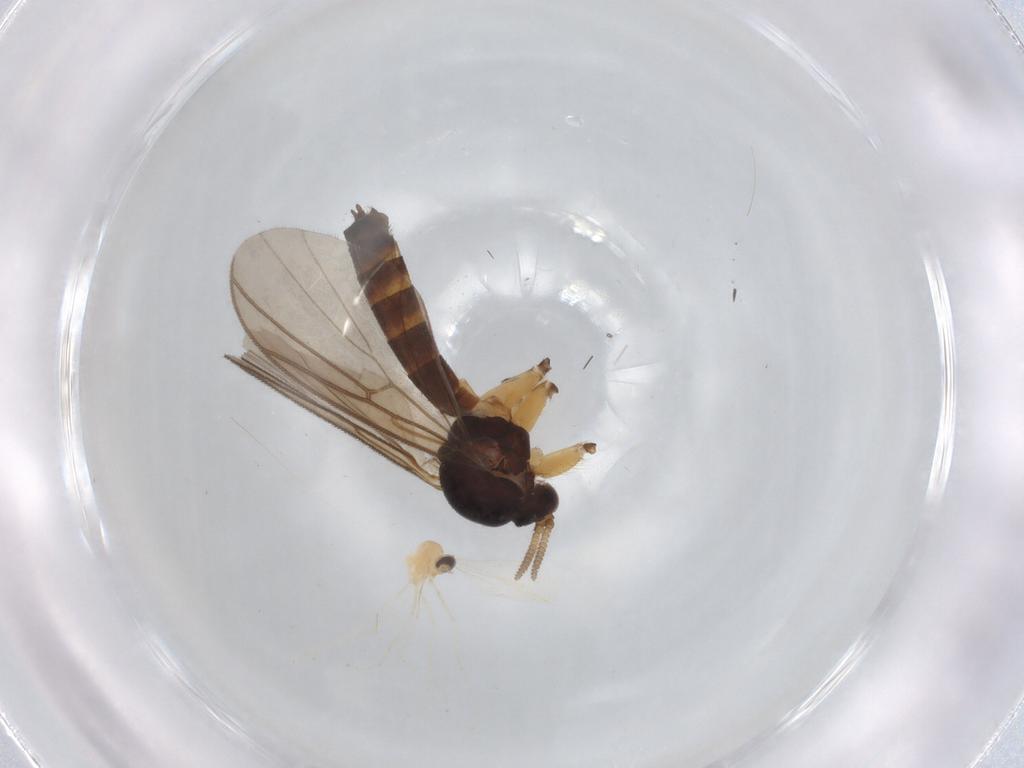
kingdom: Animalia
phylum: Arthropoda
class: Insecta
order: Diptera
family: Mycetophilidae
